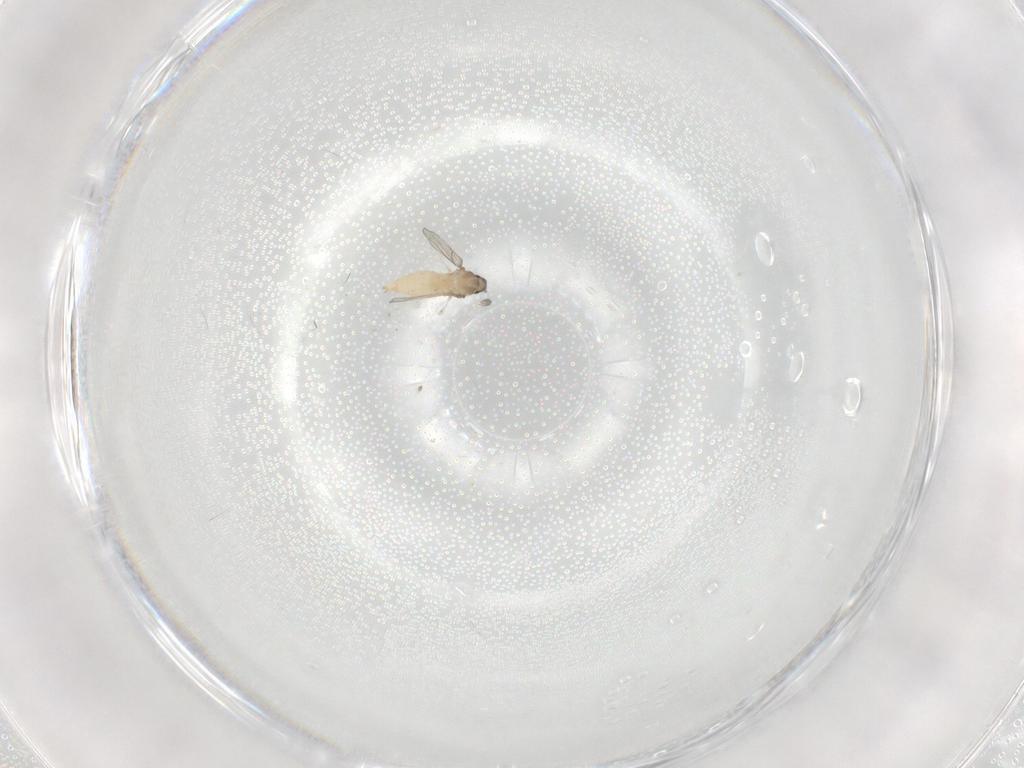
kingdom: Animalia
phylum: Arthropoda
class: Insecta
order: Diptera
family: Cecidomyiidae
